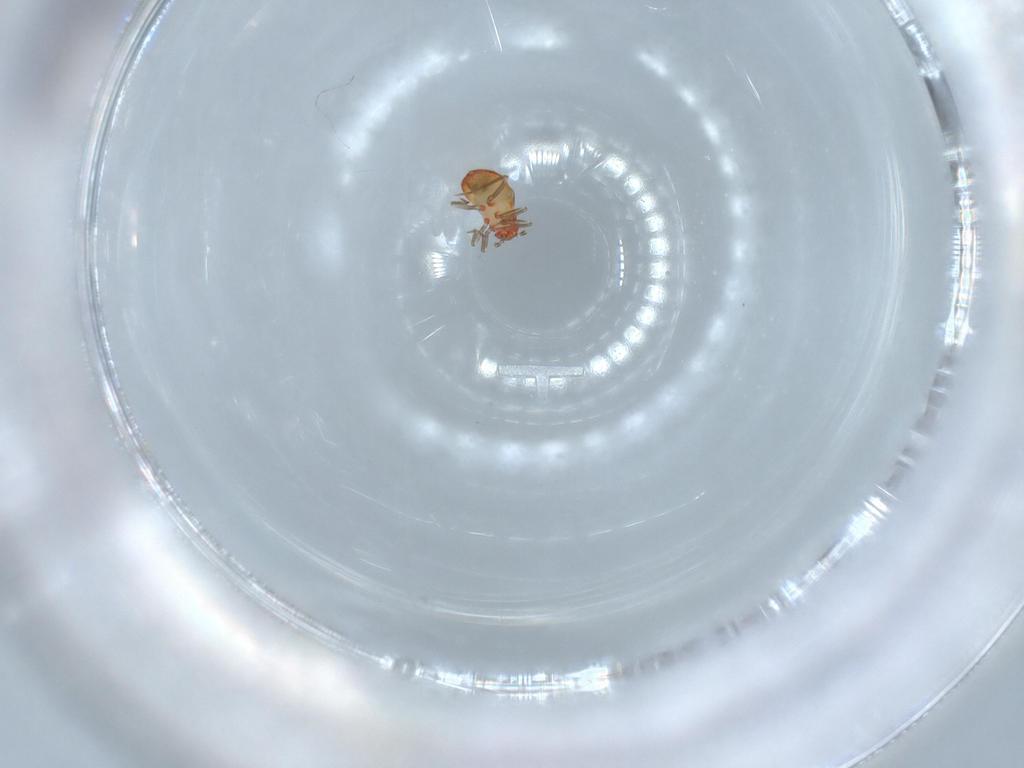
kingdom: Animalia
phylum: Arthropoda
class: Insecta
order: Hemiptera
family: Schizopteridae
